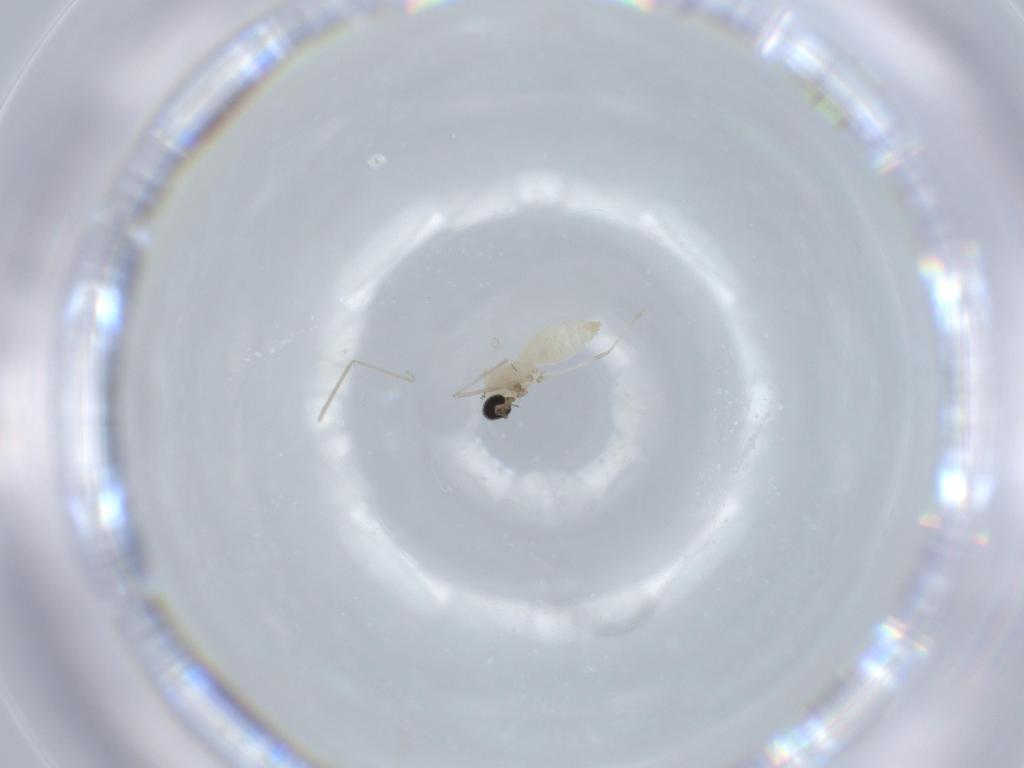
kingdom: Animalia
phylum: Arthropoda
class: Insecta
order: Diptera
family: Cecidomyiidae
